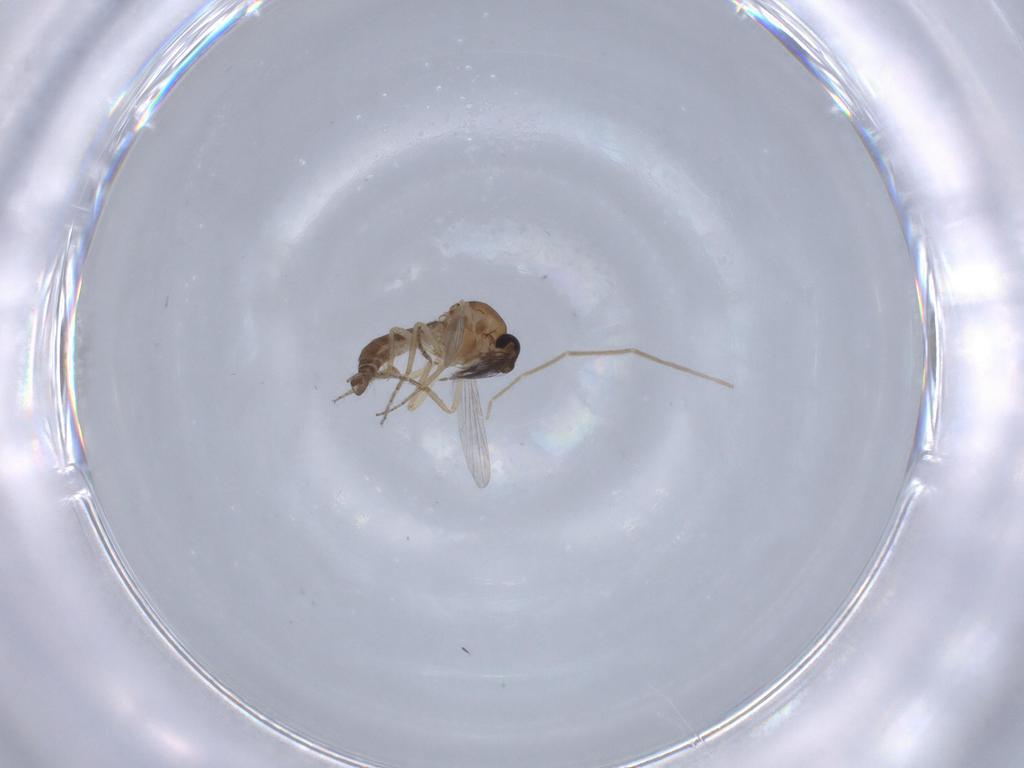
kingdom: Animalia
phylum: Arthropoda
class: Insecta
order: Diptera
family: Ceratopogonidae
